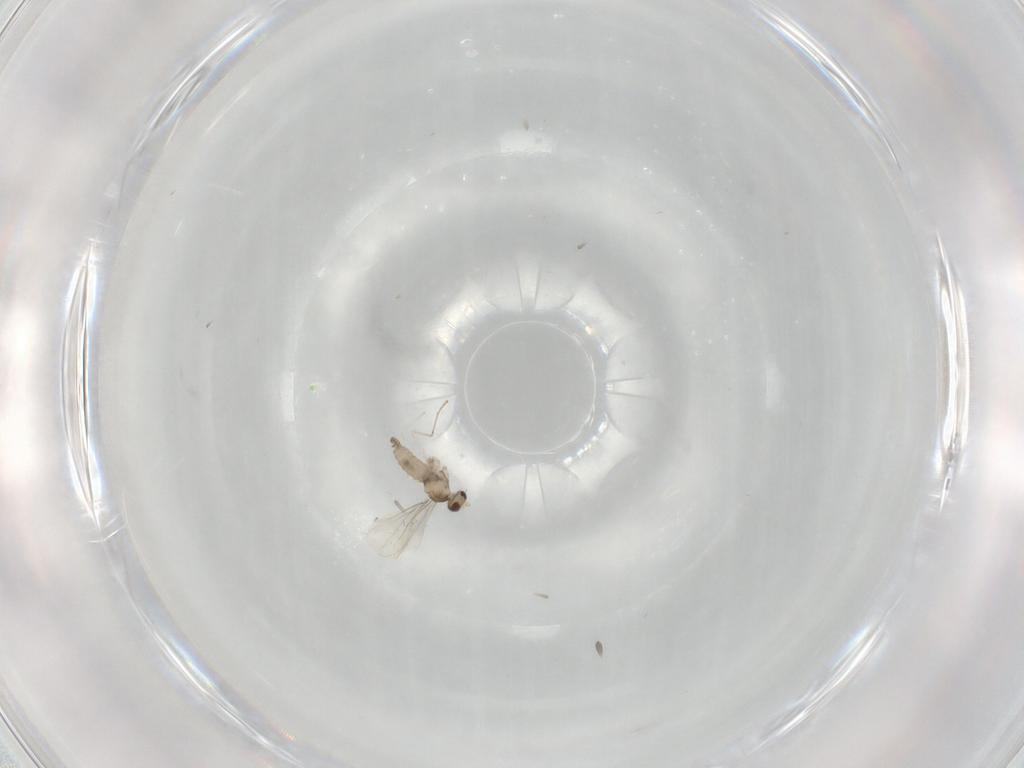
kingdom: Animalia
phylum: Arthropoda
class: Insecta
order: Diptera
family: Cecidomyiidae
